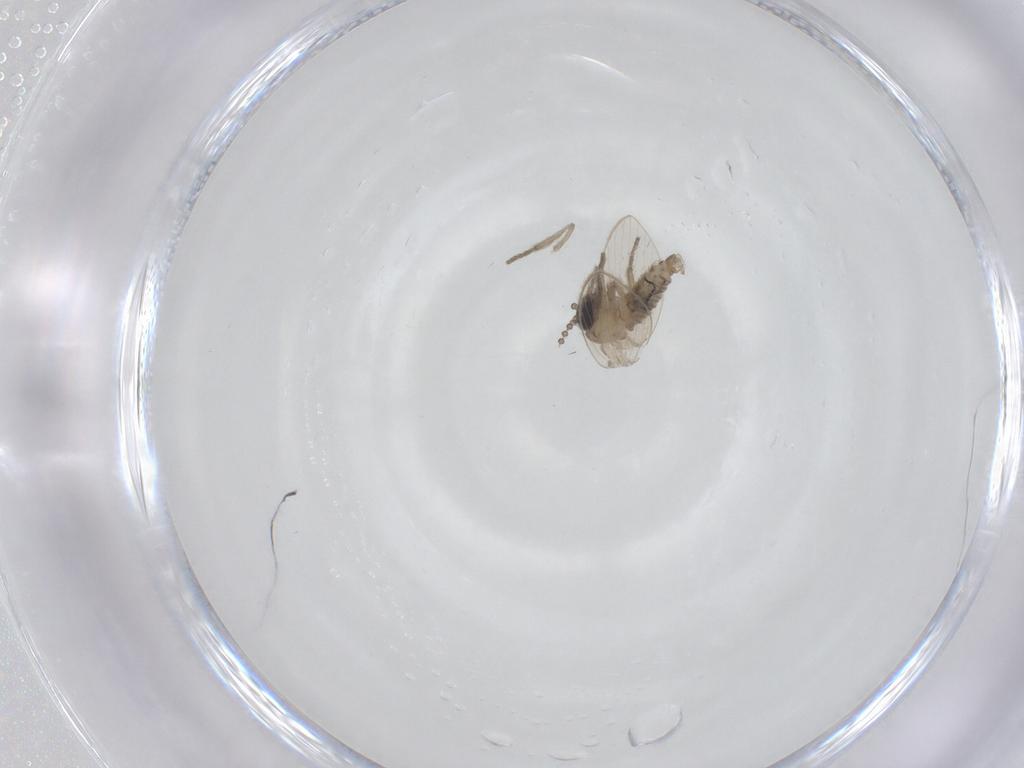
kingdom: Animalia
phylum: Arthropoda
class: Insecta
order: Diptera
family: Psychodidae
